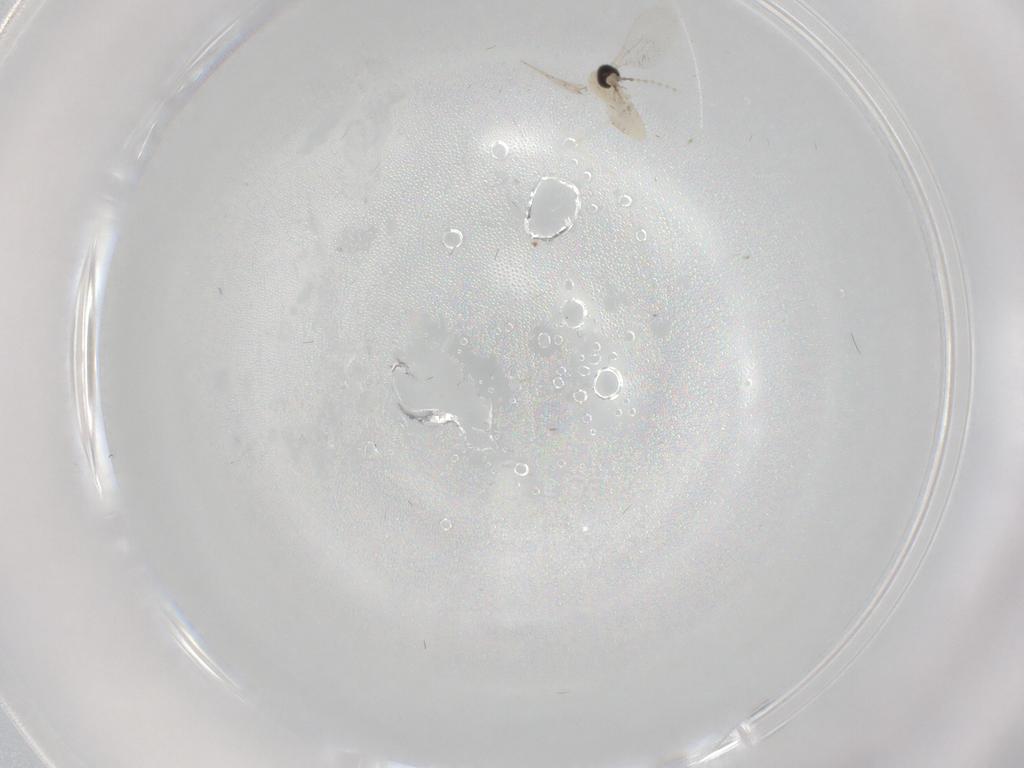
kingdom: Animalia
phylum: Arthropoda
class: Insecta
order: Diptera
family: Cecidomyiidae
